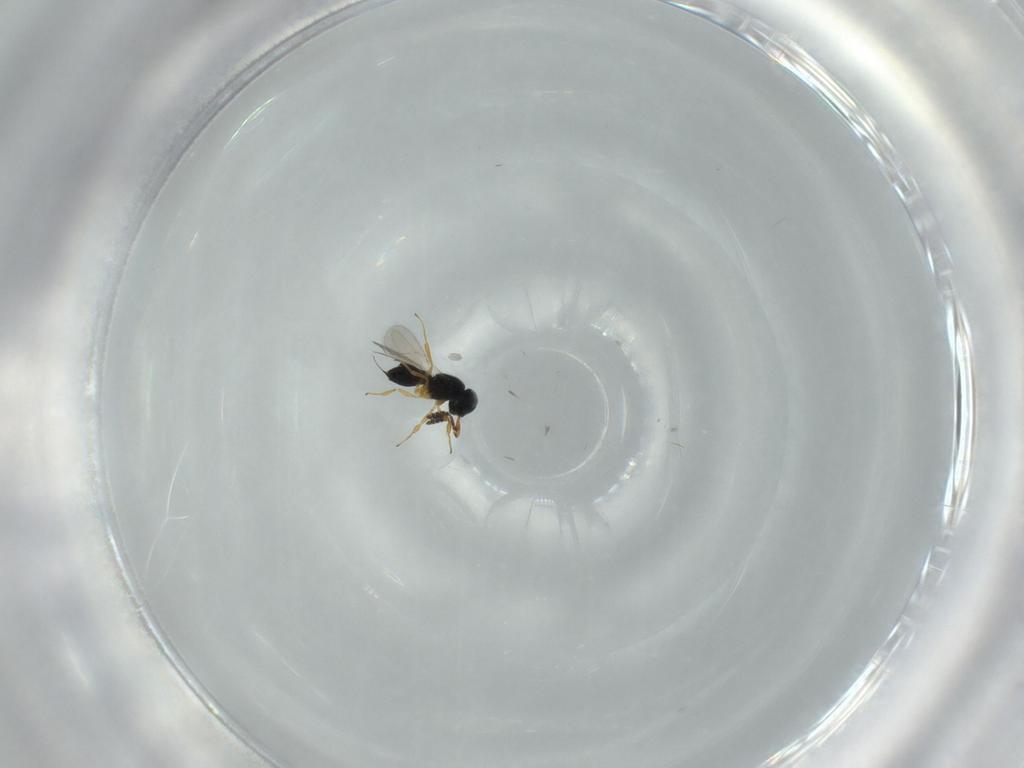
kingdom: Animalia
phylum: Arthropoda
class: Insecta
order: Hymenoptera
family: Scelionidae
